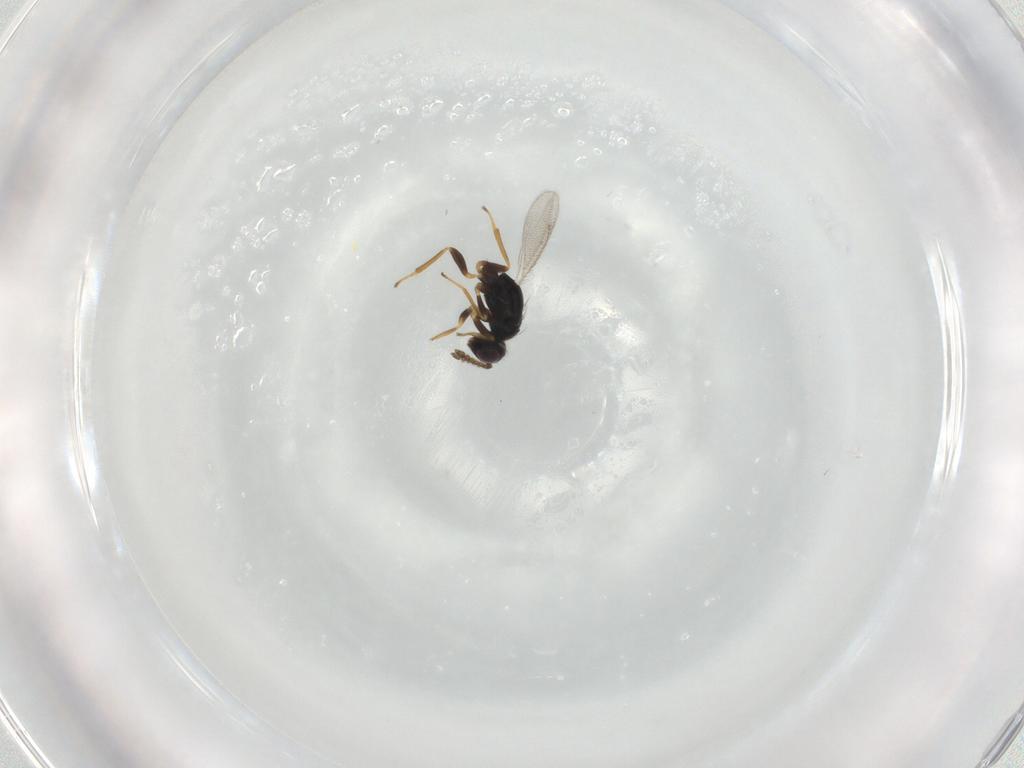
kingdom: Animalia
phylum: Arthropoda
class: Insecta
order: Hymenoptera
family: Eulophidae
